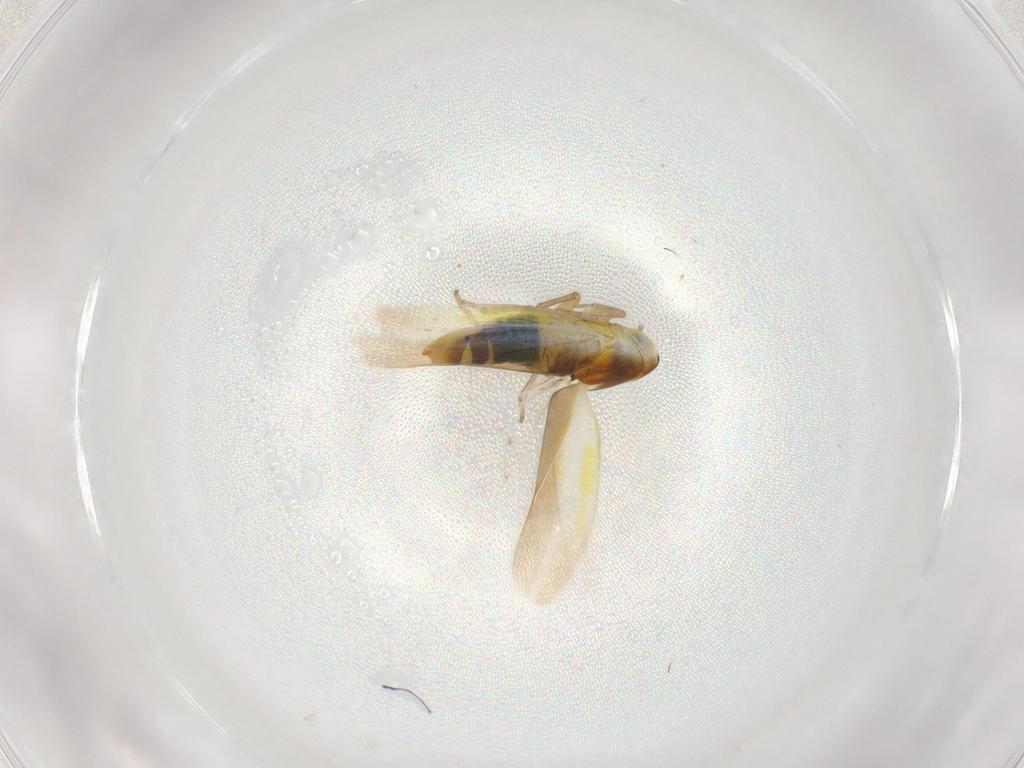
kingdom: Animalia
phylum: Arthropoda
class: Insecta
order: Hemiptera
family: Cicadellidae
